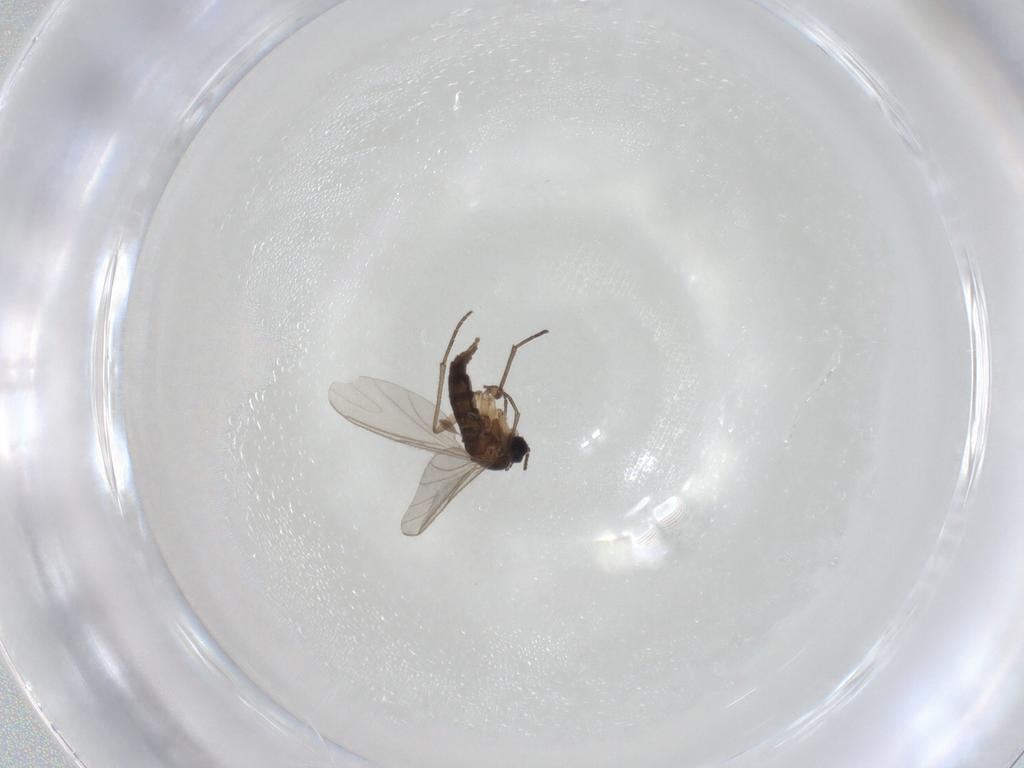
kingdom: Animalia
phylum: Arthropoda
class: Insecta
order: Diptera
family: Sciaridae
